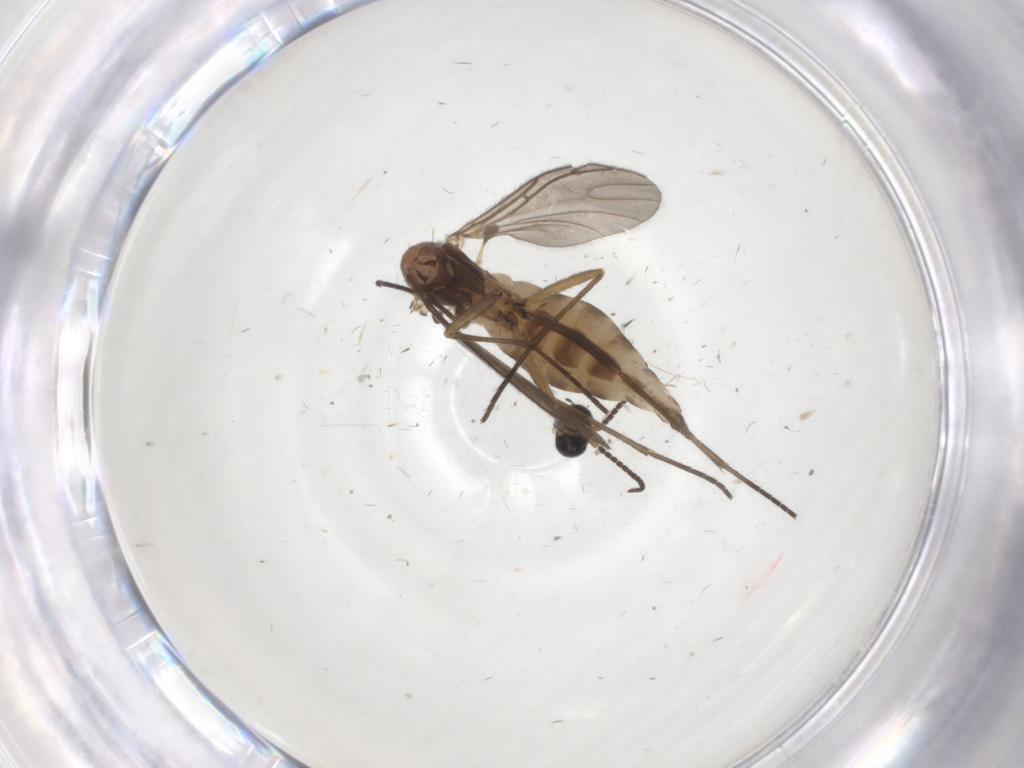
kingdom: Animalia
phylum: Arthropoda
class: Insecta
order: Diptera
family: Sciaridae
